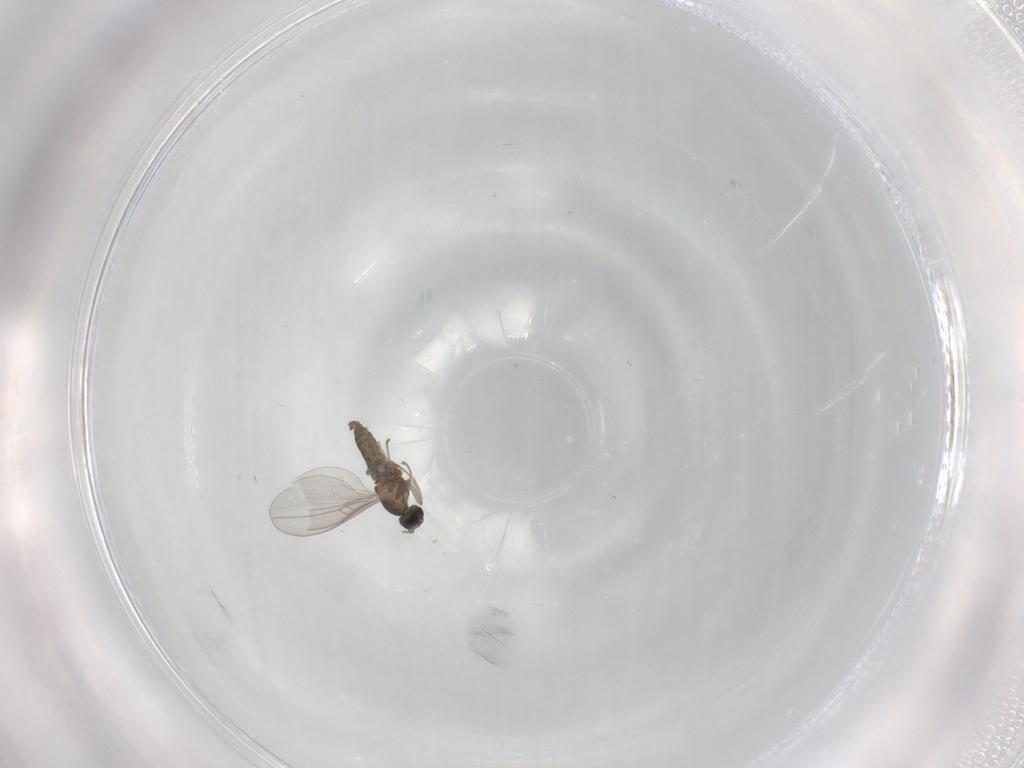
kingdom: Animalia
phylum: Arthropoda
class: Insecta
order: Diptera
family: Cecidomyiidae
